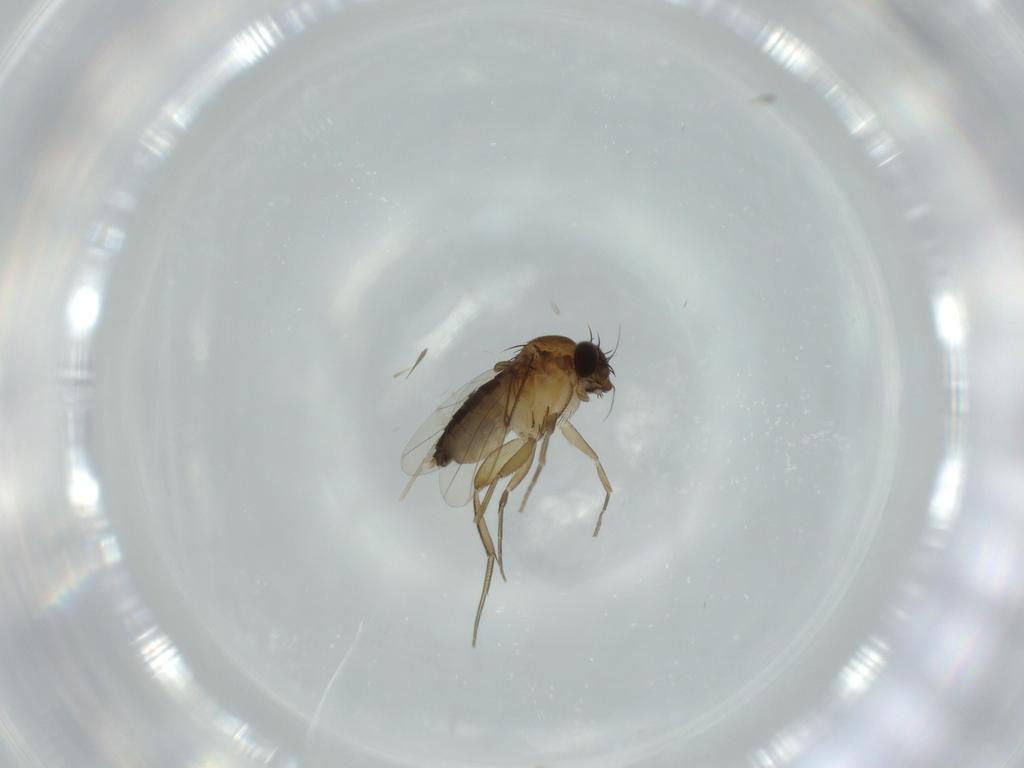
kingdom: Animalia
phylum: Arthropoda
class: Insecta
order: Diptera
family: Phoridae
